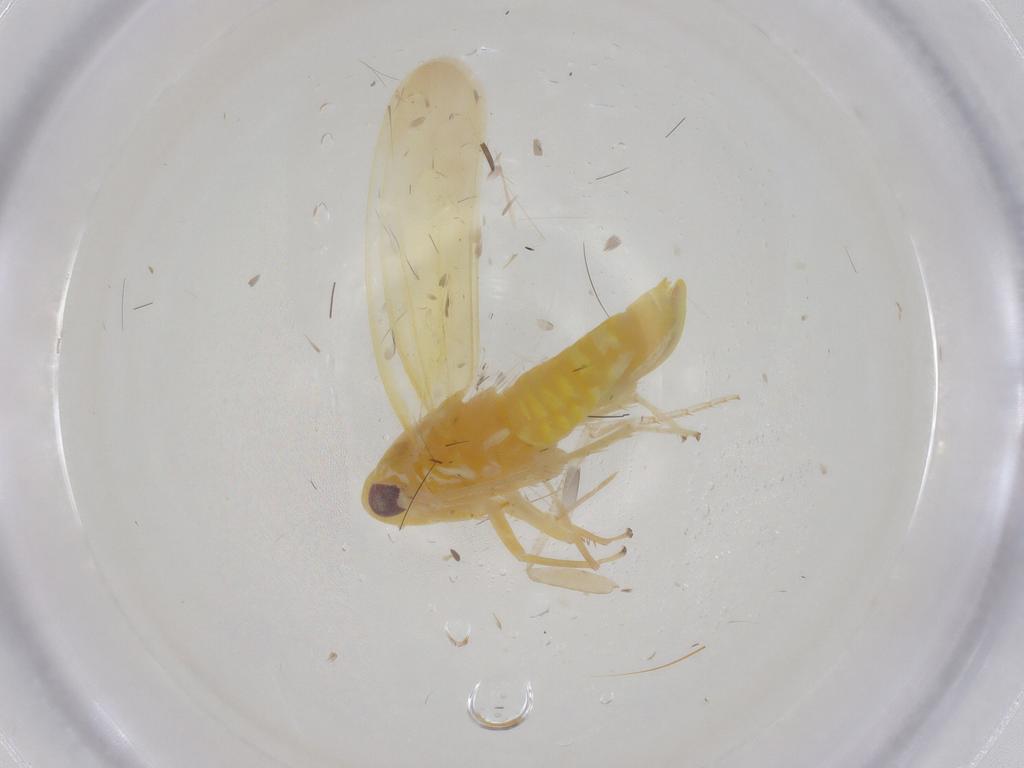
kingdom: Animalia
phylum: Arthropoda
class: Insecta
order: Hemiptera
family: Cicadellidae
